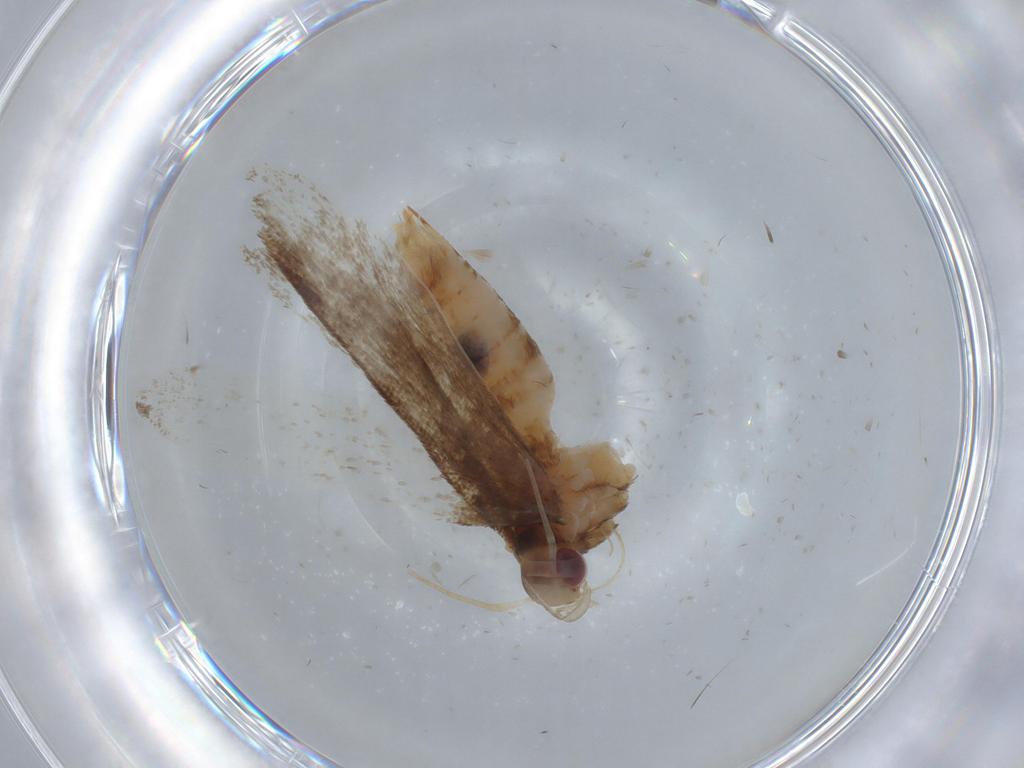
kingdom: Animalia
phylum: Arthropoda
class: Insecta
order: Lepidoptera
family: Gelechiidae
